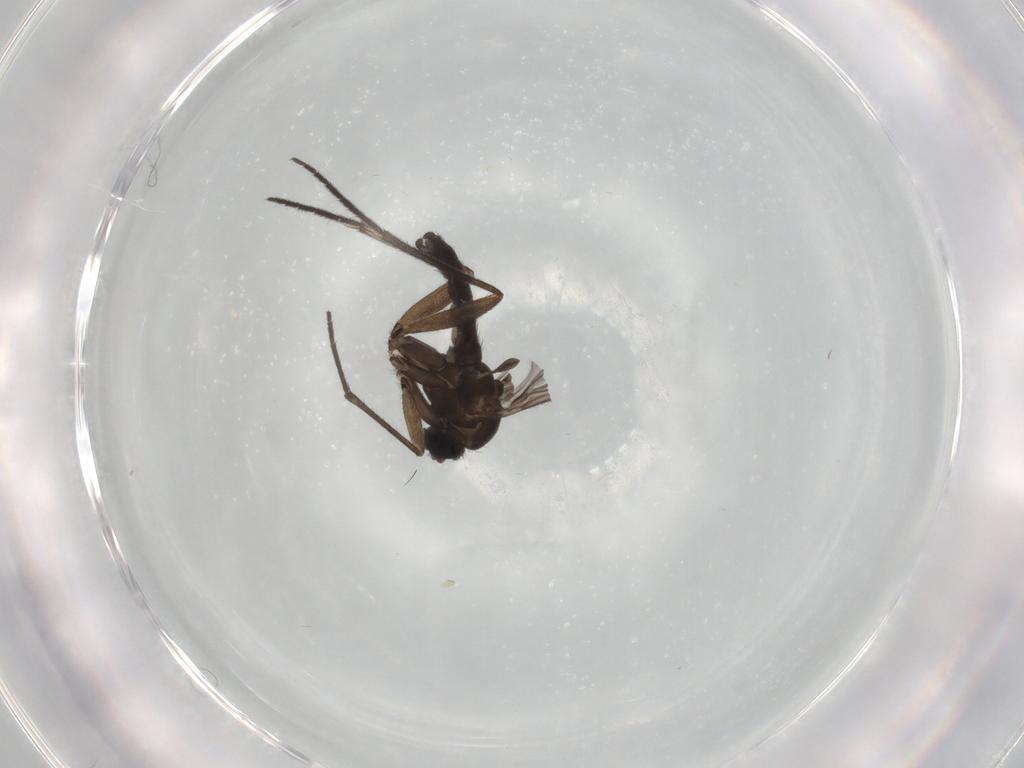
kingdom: Animalia
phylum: Arthropoda
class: Insecta
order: Diptera
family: Sciaridae
